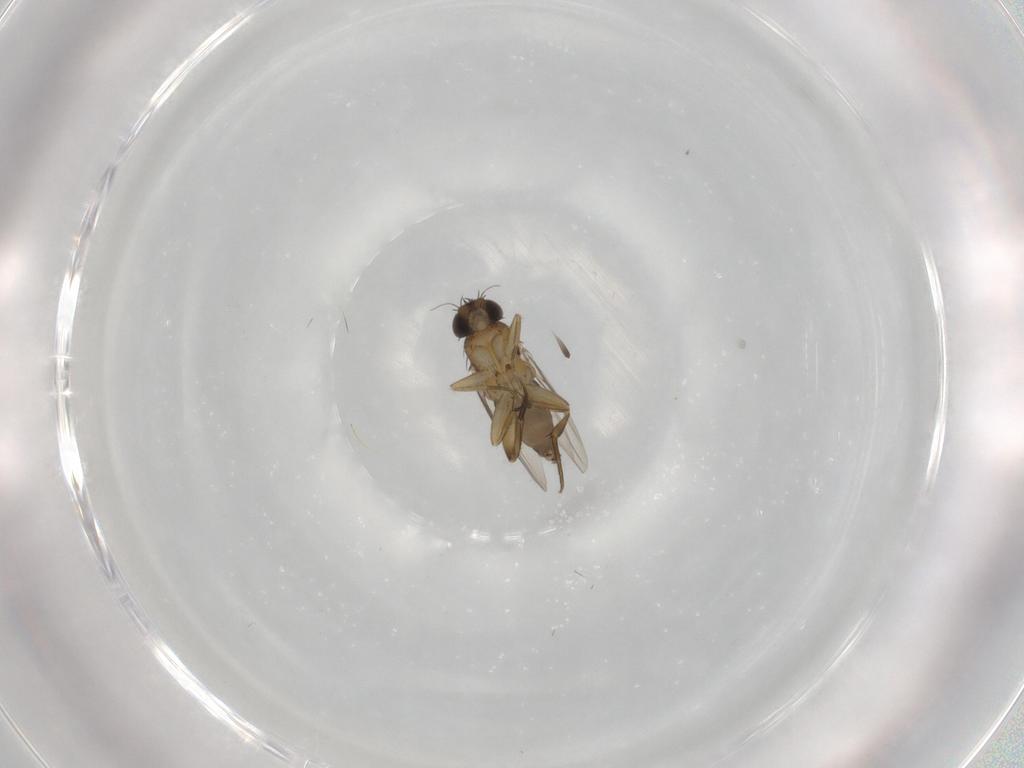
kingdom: Animalia
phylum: Arthropoda
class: Insecta
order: Diptera
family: Phoridae
